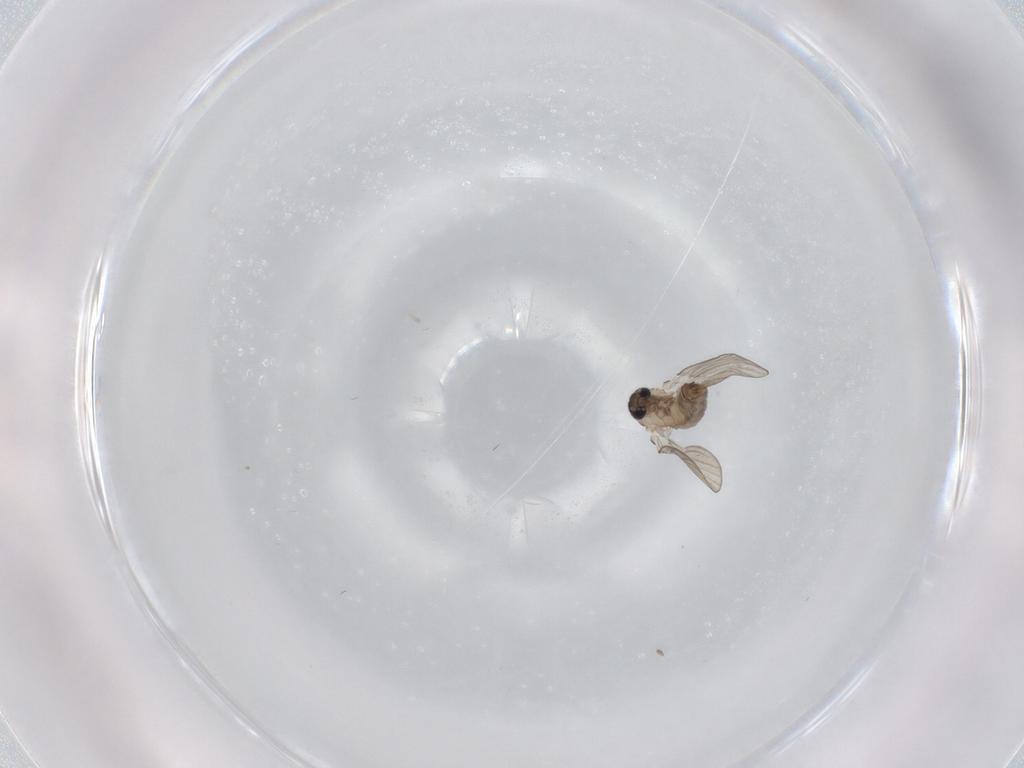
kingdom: Animalia
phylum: Arthropoda
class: Insecta
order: Diptera
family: Psychodidae
